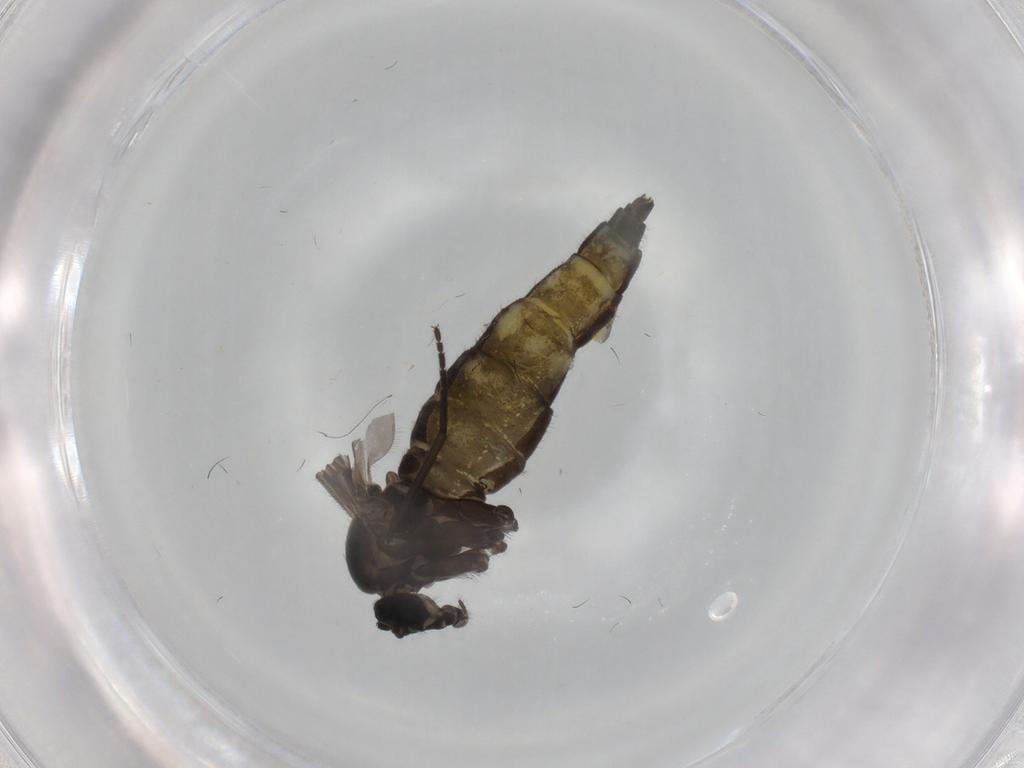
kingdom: Animalia
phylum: Arthropoda
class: Insecta
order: Diptera
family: Sciaridae
